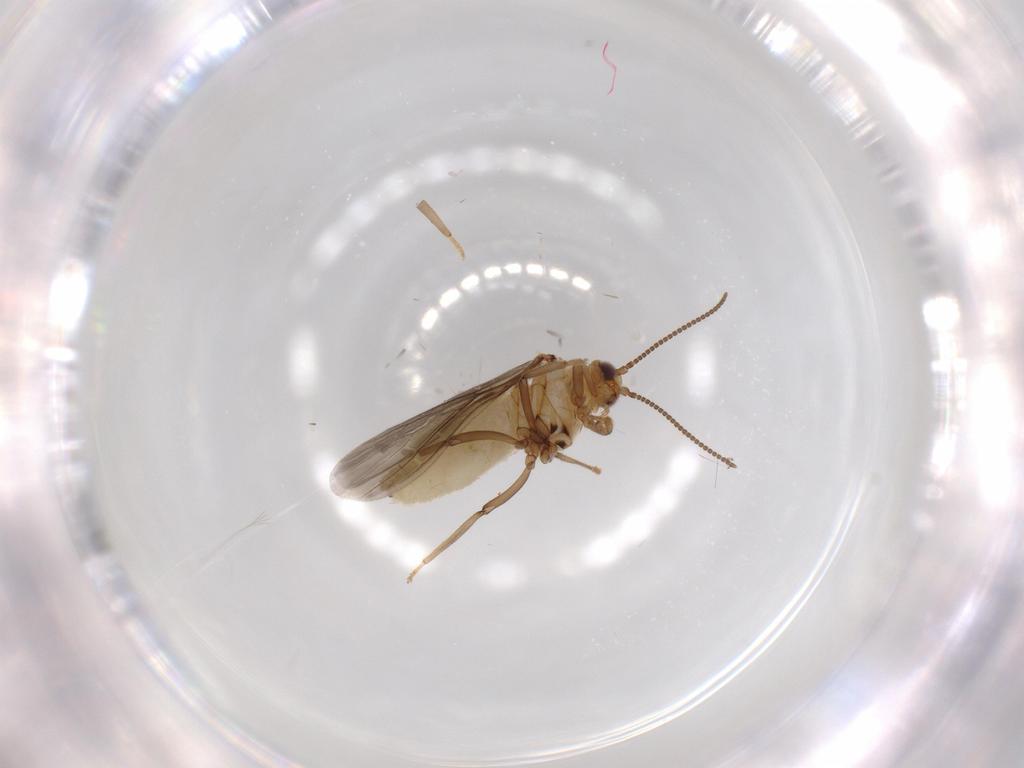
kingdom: Animalia
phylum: Arthropoda
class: Insecta
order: Neuroptera
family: Coniopterygidae
